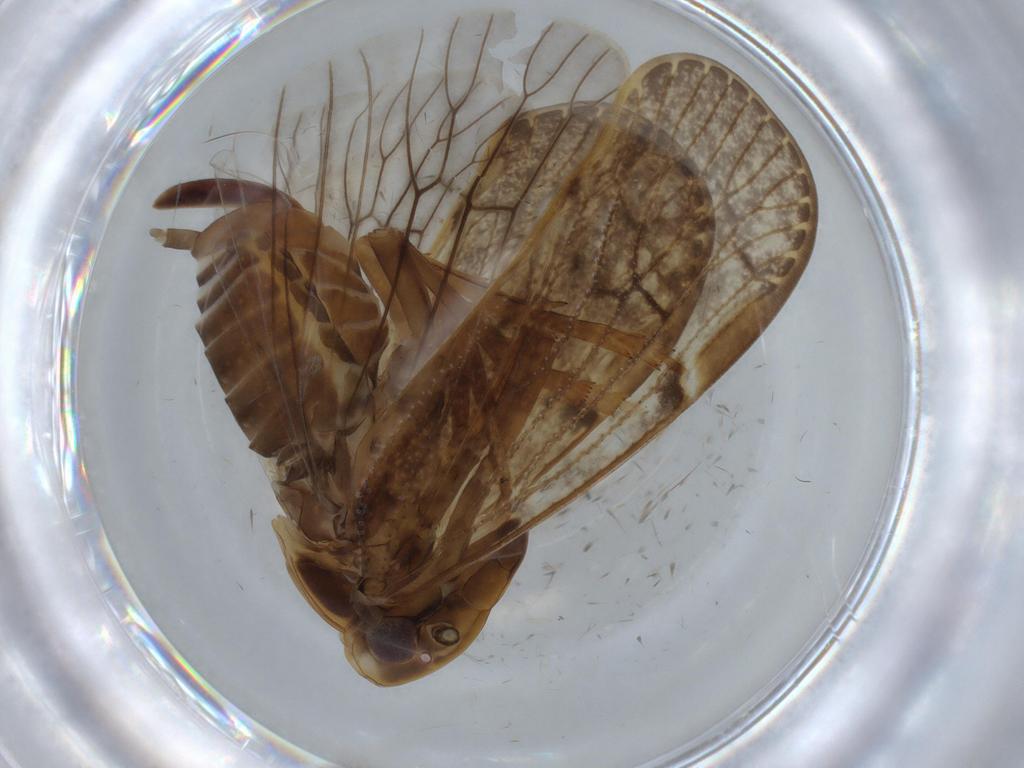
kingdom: Animalia
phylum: Arthropoda
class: Insecta
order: Hemiptera
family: Cixiidae
